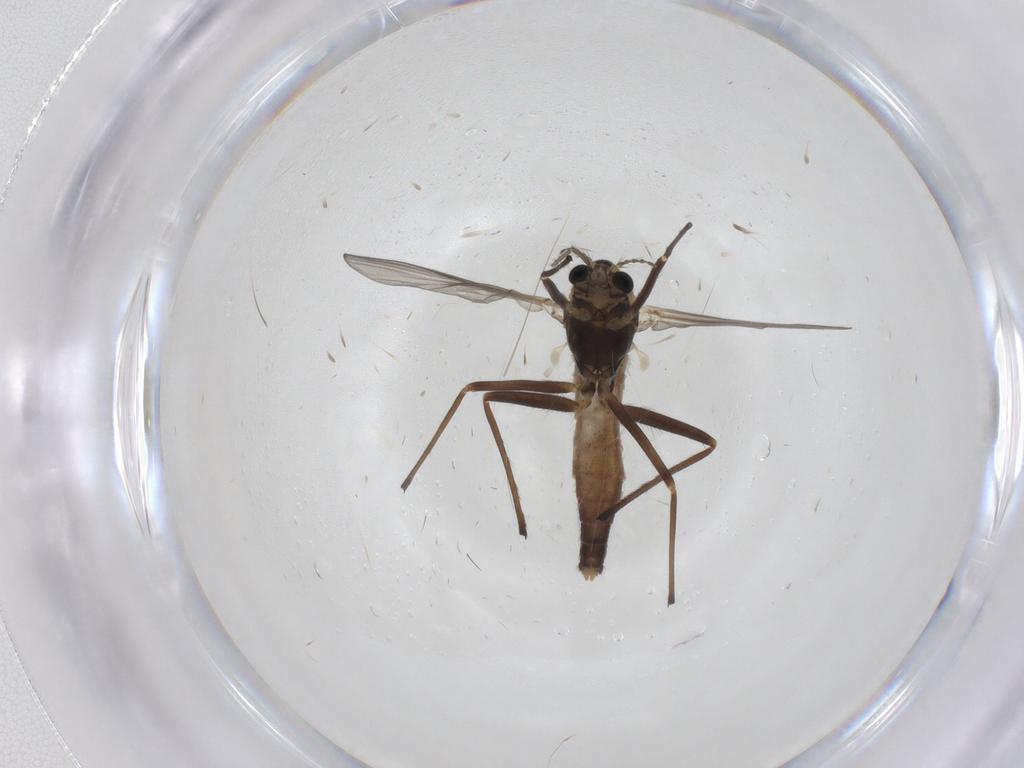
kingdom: Animalia
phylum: Arthropoda
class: Insecta
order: Diptera
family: Chironomidae
